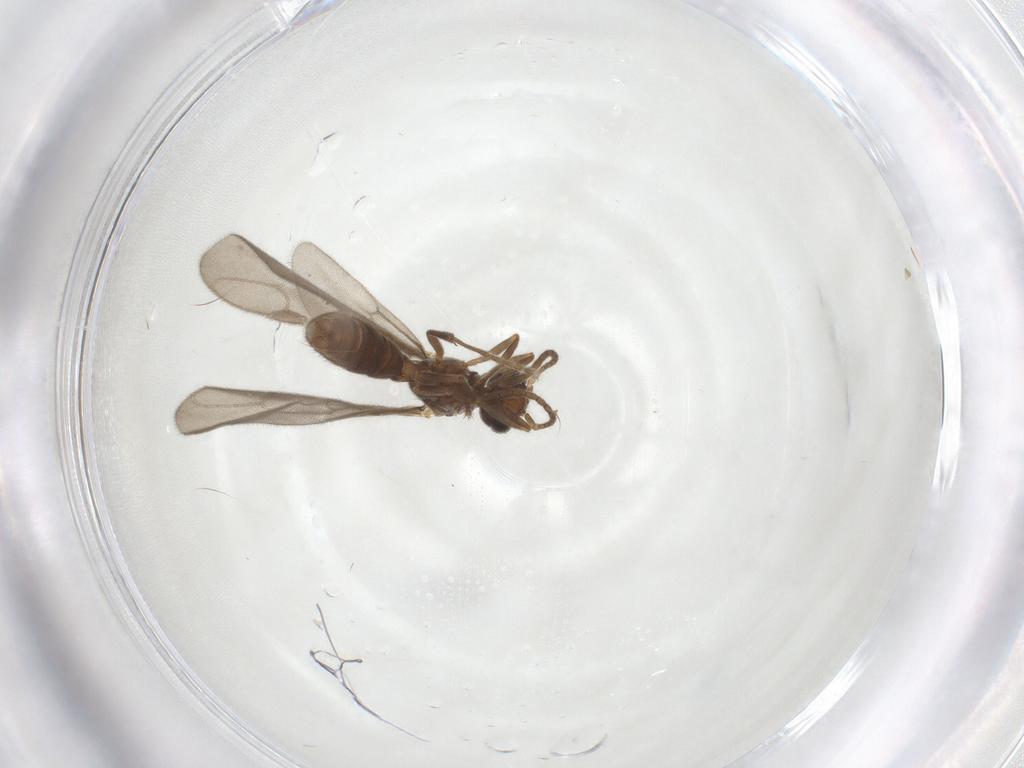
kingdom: Animalia
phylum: Arthropoda
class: Insecta
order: Hymenoptera
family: Formicidae
